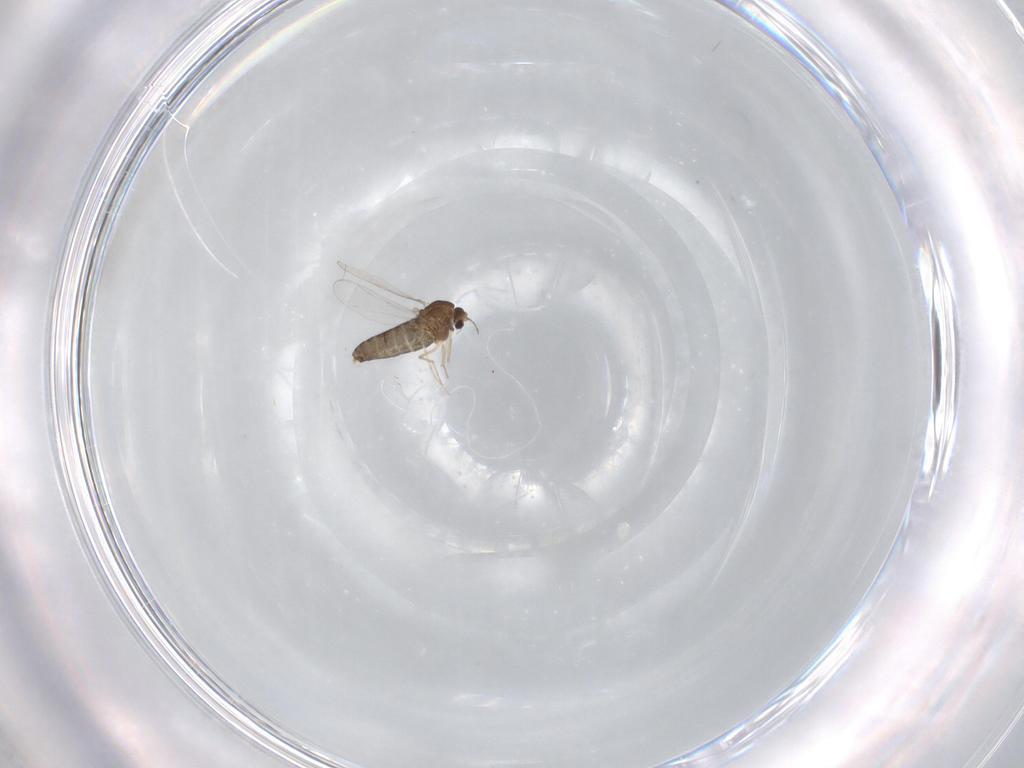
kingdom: Animalia
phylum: Arthropoda
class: Insecta
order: Diptera
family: Chironomidae
